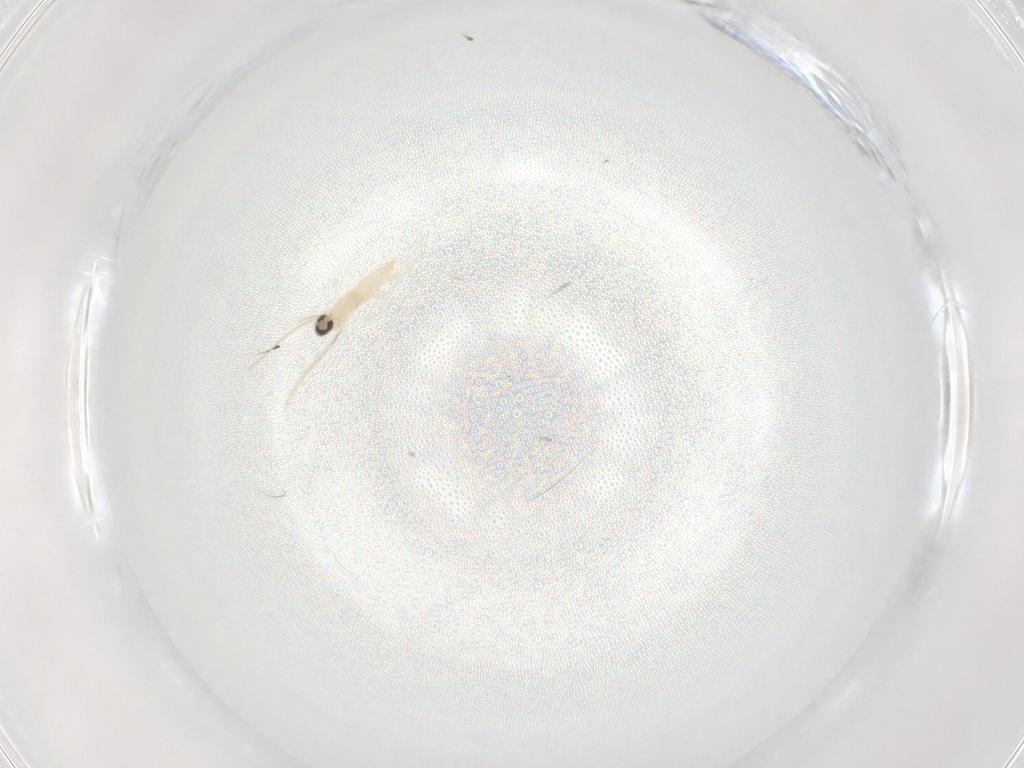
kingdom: Animalia
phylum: Arthropoda
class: Insecta
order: Diptera
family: Cecidomyiidae
